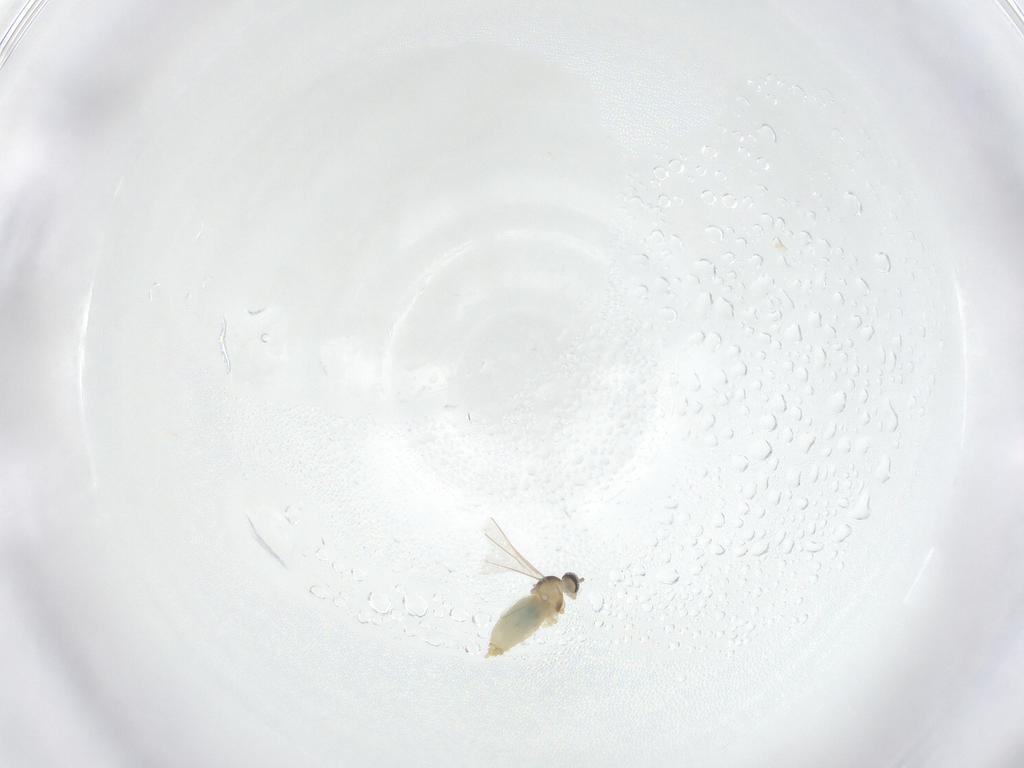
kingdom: Animalia
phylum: Arthropoda
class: Insecta
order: Diptera
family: Cecidomyiidae
